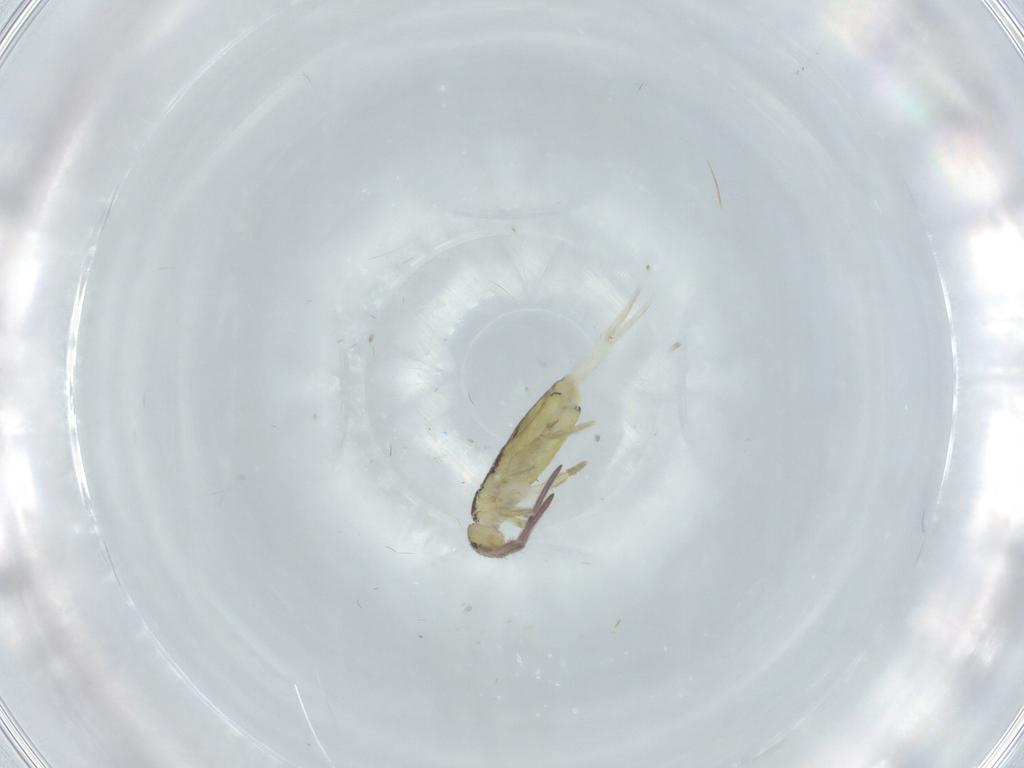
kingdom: Animalia
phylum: Arthropoda
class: Collembola
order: Entomobryomorpha
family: Entomobryidae
